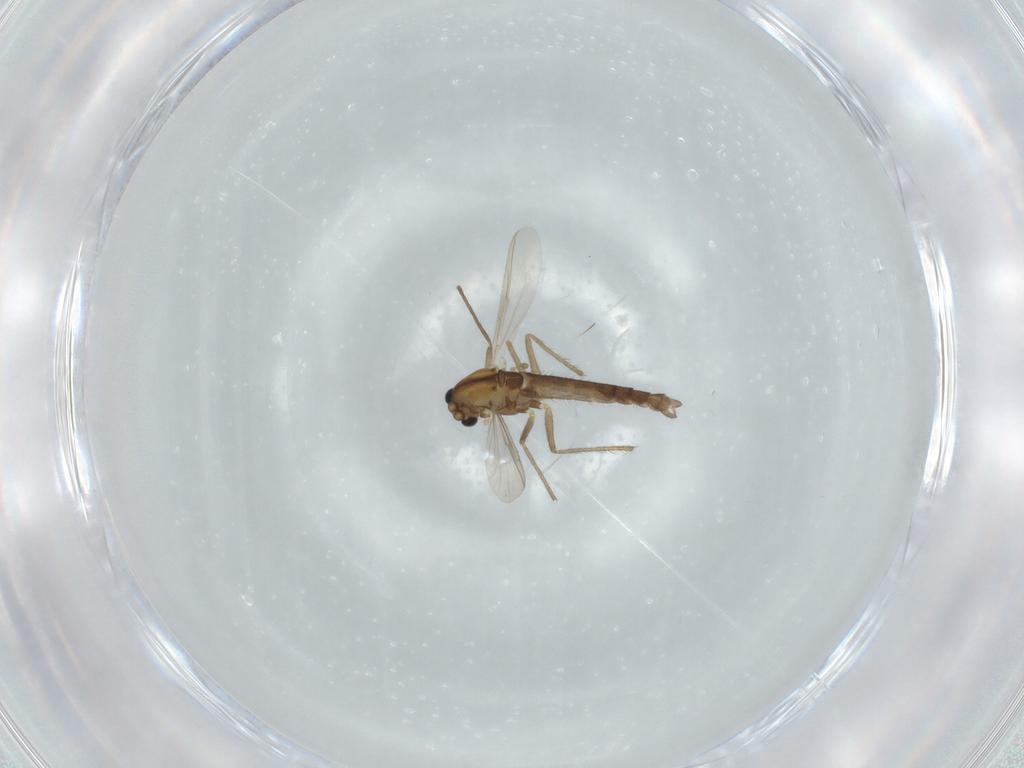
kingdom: Animalia
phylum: Arthropoda
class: Insecta
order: Diptera
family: Chironomidae
